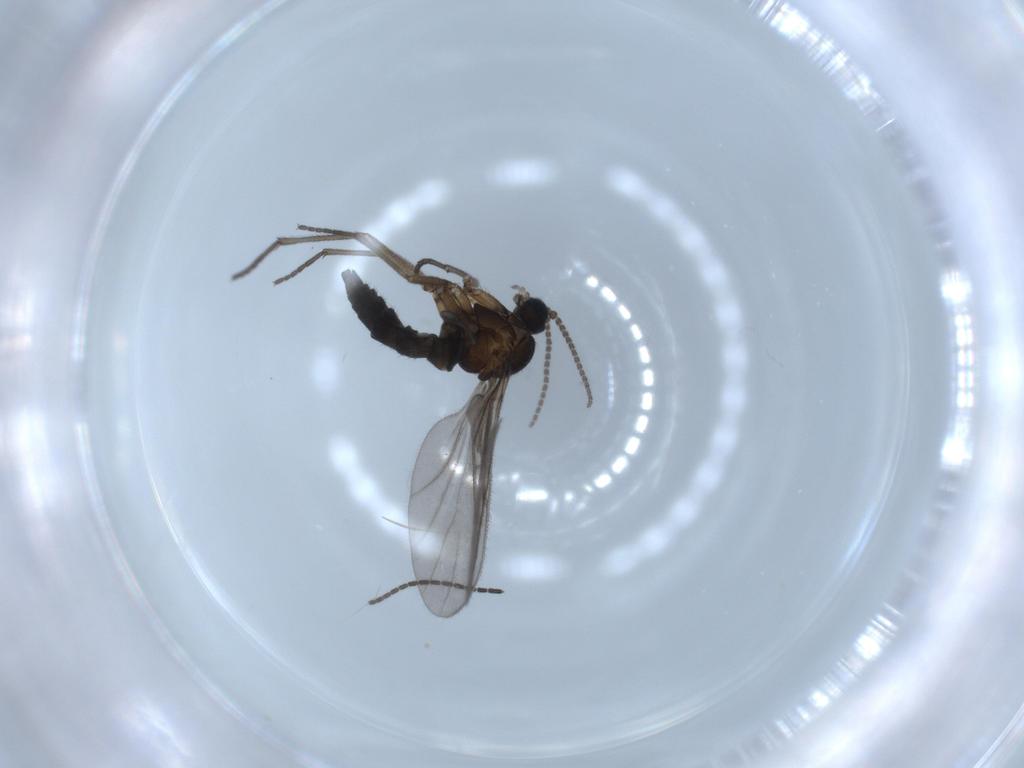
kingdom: Animalia
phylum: Arthropoda
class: Insecta
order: Diptera
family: Sciaridae
